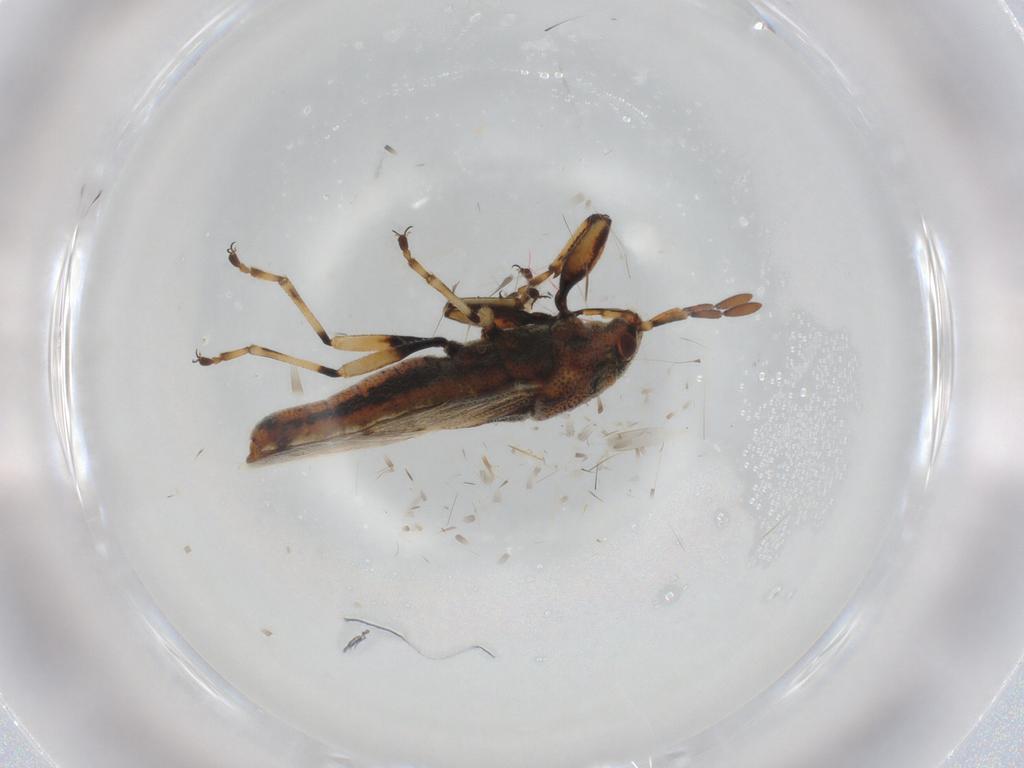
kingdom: Animalia
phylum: Arthropoda
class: Insecta
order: Hemiptera
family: Pachygronthidae
